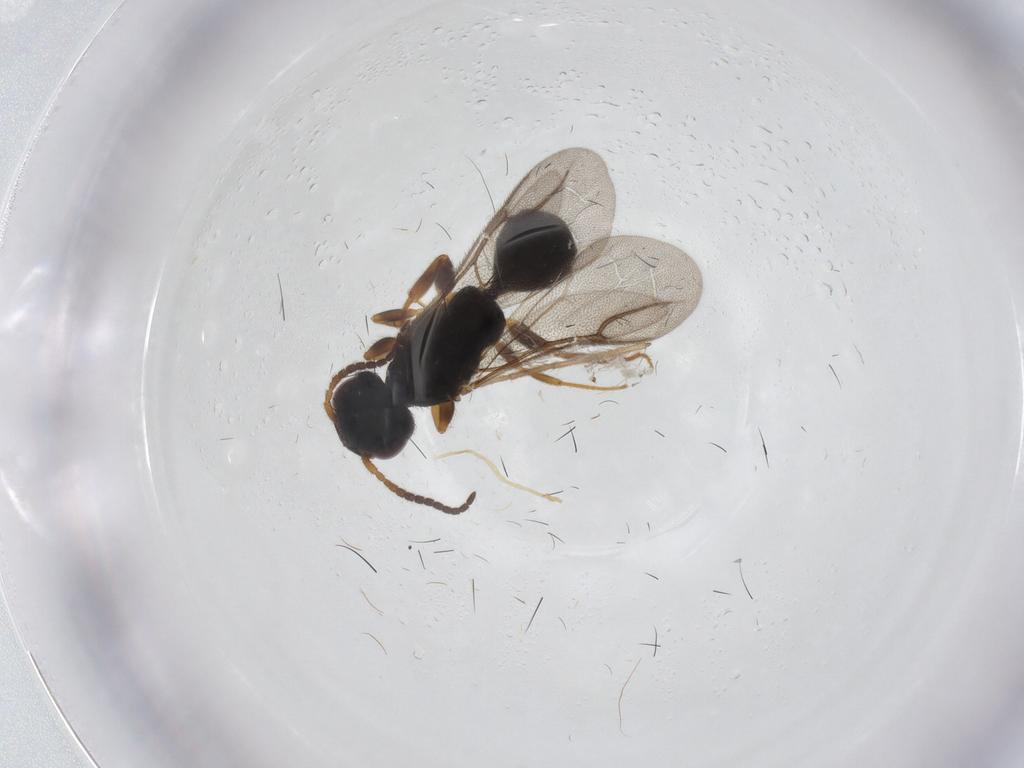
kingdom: Animalia
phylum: Arthropoda
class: Insecta
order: Hymenoptera
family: Bethylidae
